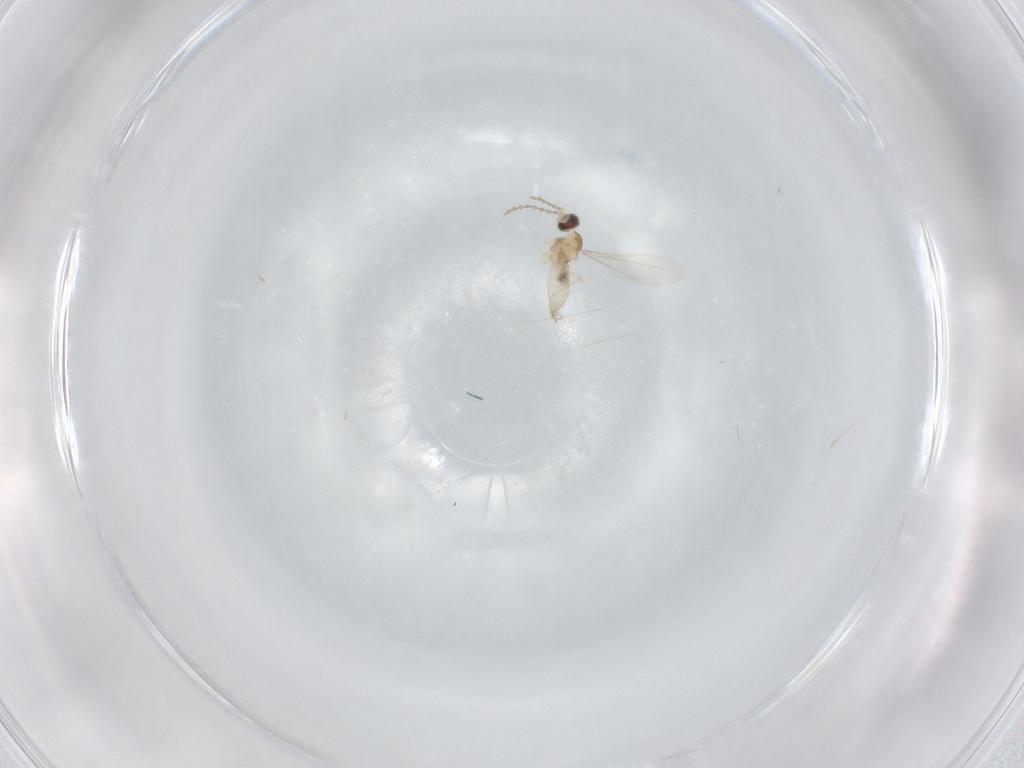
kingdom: Animalia
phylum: Arthropoda
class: Insecta
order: Diptera
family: Cecidomyiidae
